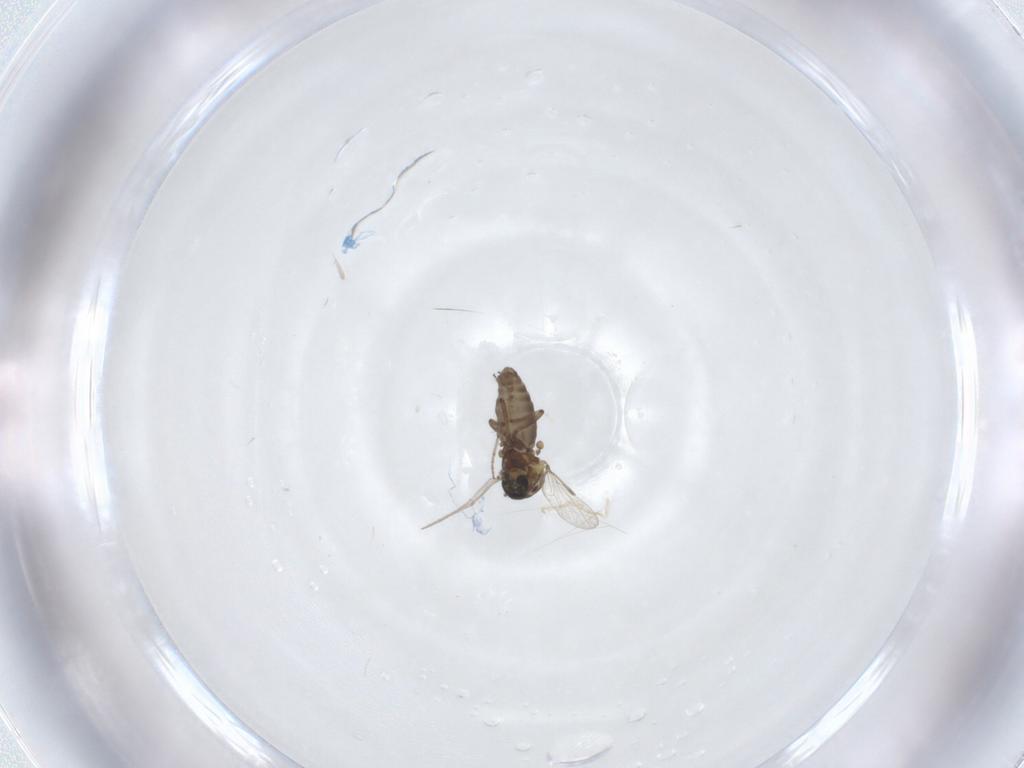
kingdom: Animalia
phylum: Arthropoda
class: Insecta
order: Diptera
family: Ceratopogonidae
